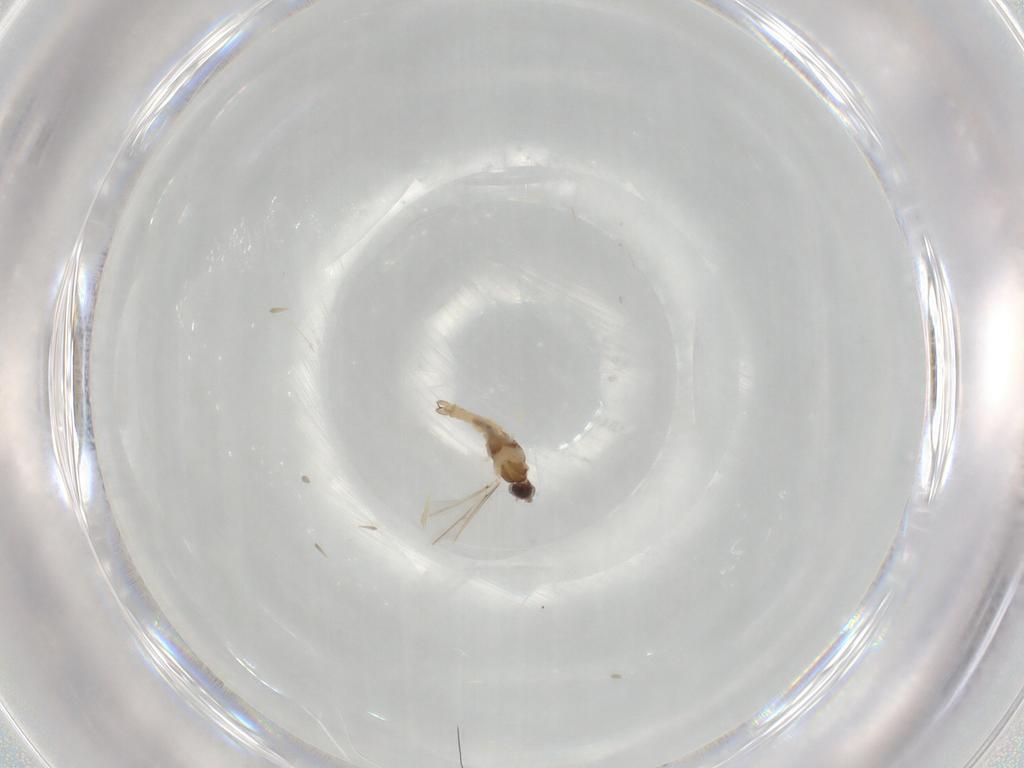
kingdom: Animalia
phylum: Arthropoda
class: Insecta
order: Diptera
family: Cecidomyiidae
